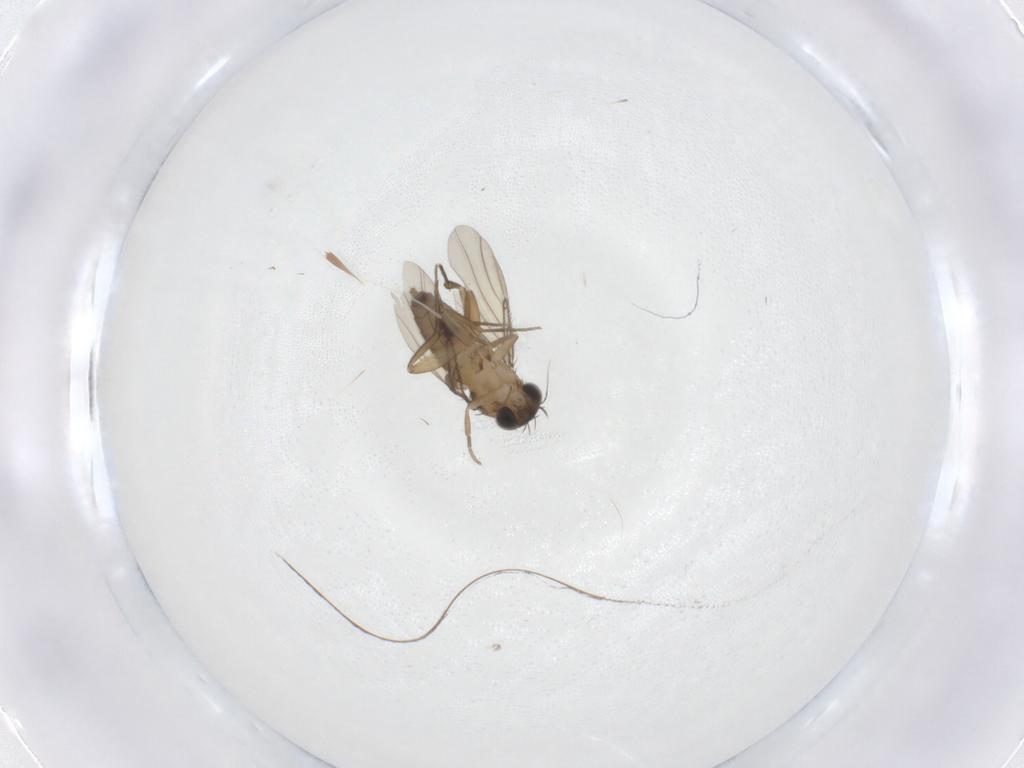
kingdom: Animalia
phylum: Arthropoda
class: Insecta
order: Diptera
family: Phoridae
